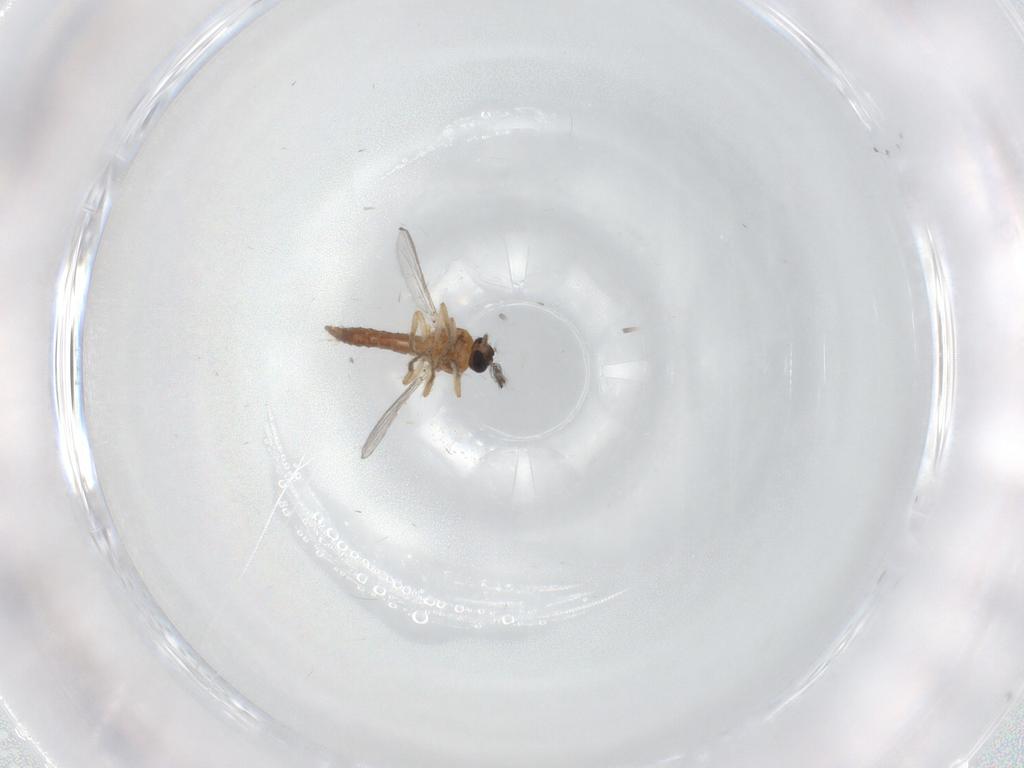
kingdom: Animalia
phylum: Arthropoda
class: Insecta
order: Diptera
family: Ceratopogonidae
